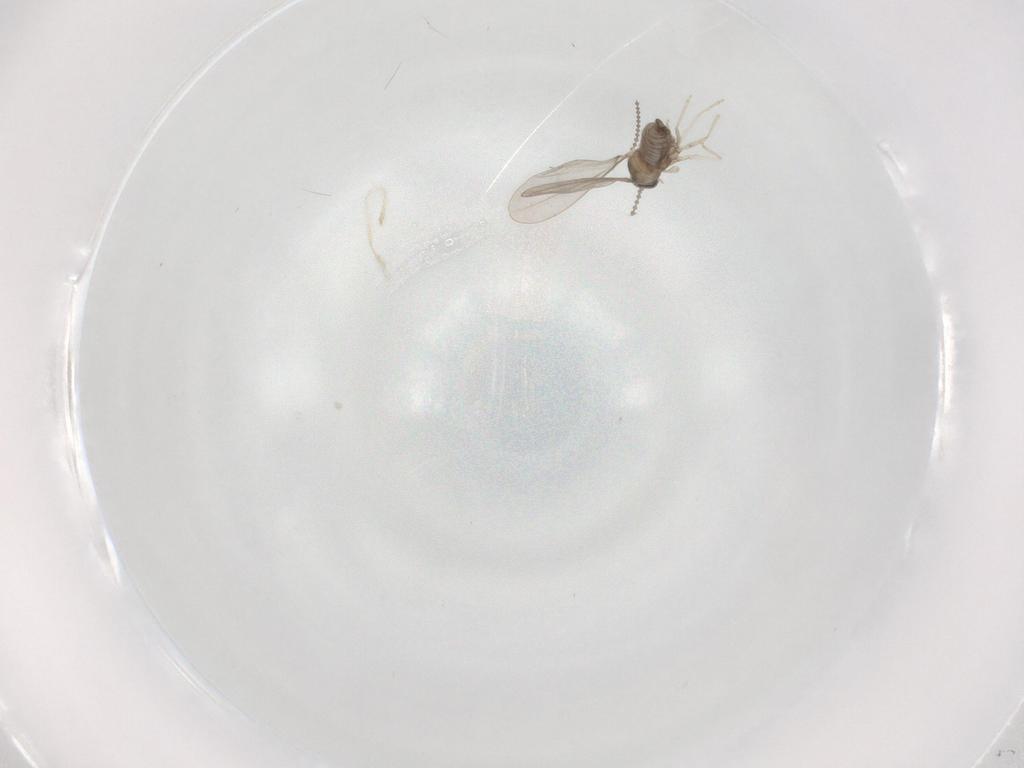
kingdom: Animalia
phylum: Arthropoda
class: Insecta
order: Diptera
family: Cecidomyiidae
